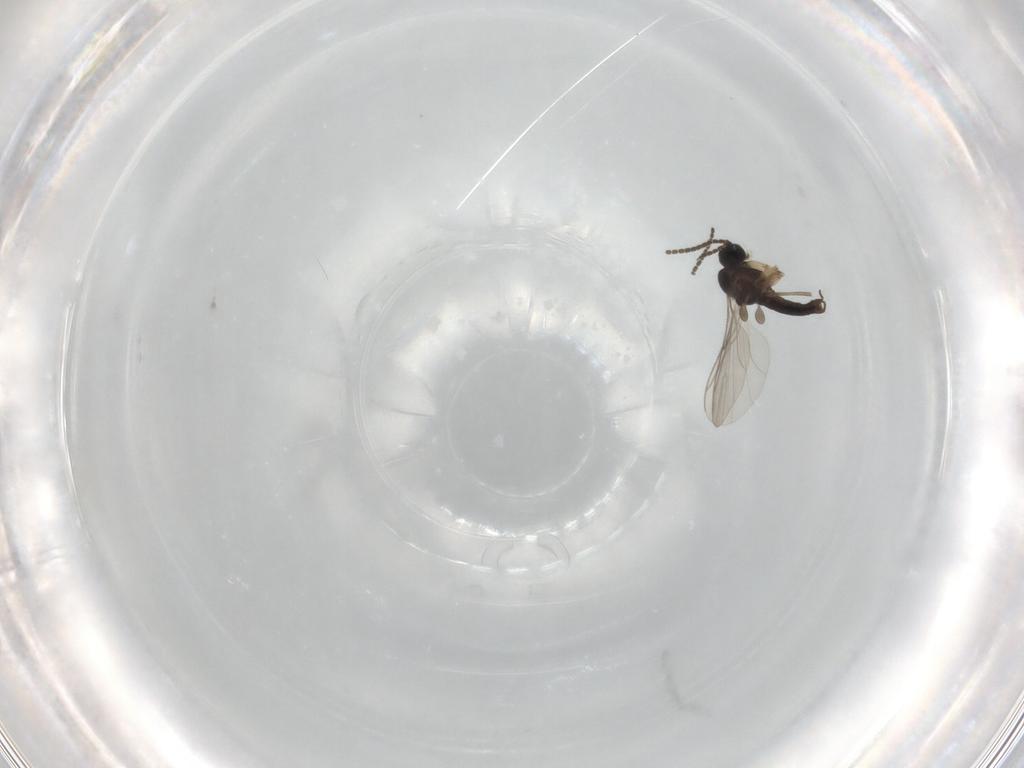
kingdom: Animalia
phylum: Arthropoda
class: Insecta
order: Diptera
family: Sciaridae
